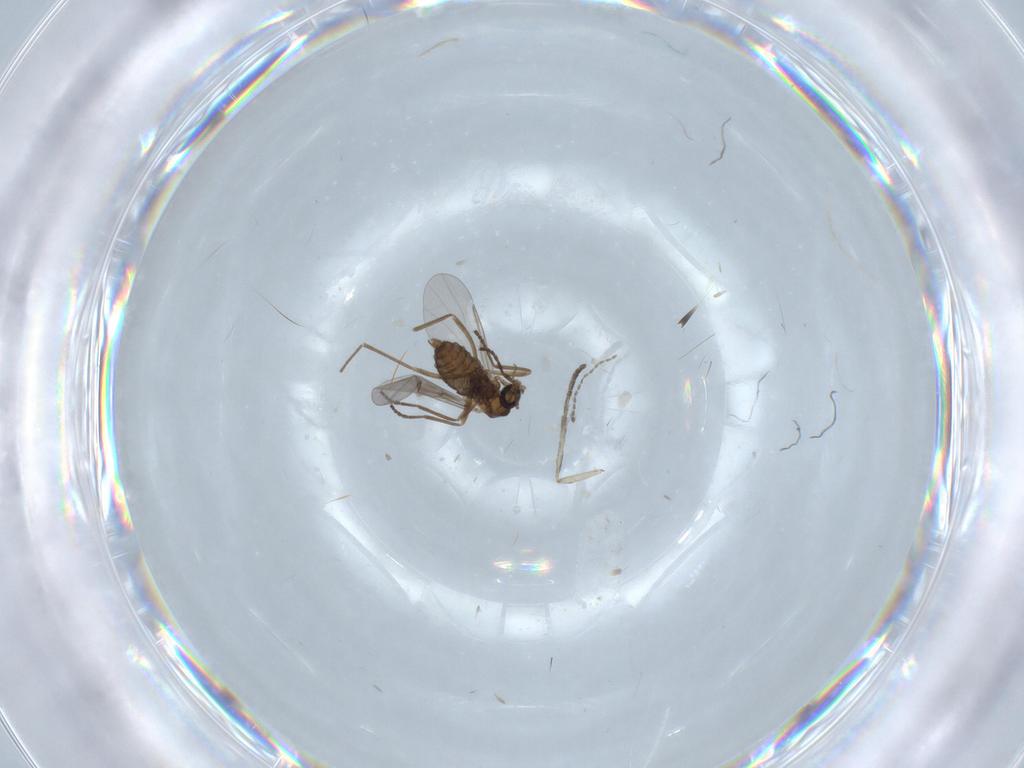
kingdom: Animalia
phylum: Arthropoda
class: Insecta
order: Diptera
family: Cecidomyiidae
